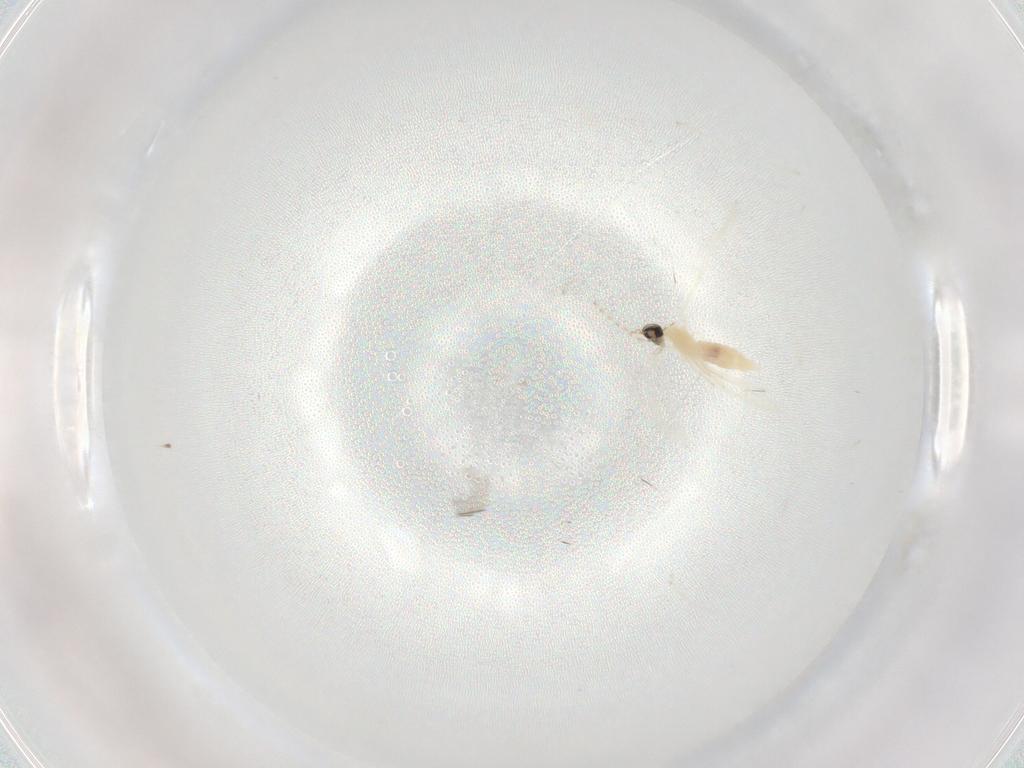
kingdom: Animalia
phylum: Arthropoda
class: Insecta
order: Diptera
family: Cecidomyiidae
